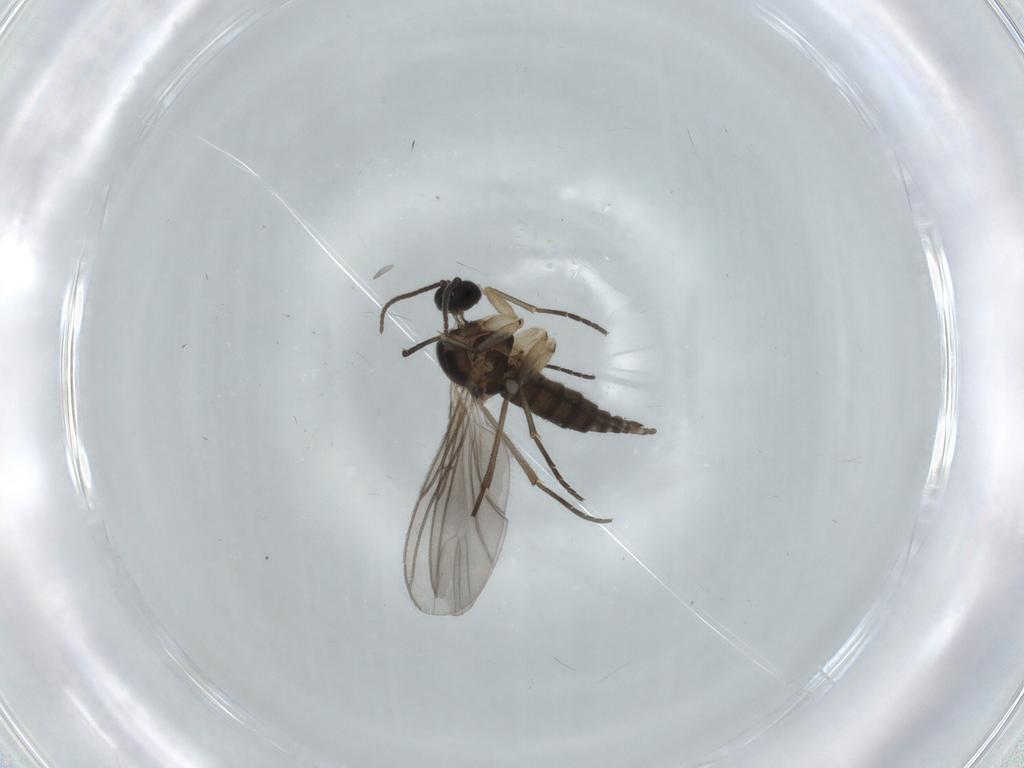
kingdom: Animalia
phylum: Arthropoda
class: Insecta
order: Diptera
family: Sciaridae
